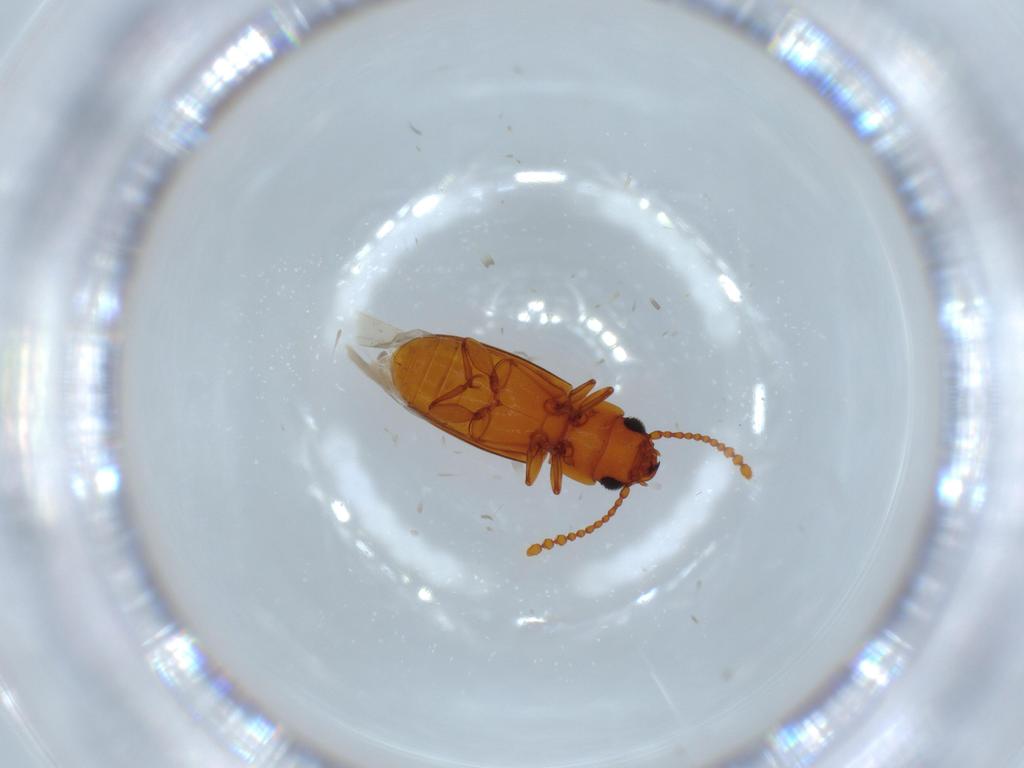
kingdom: Animalia
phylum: Arthropoda
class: Insecta
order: Coleoptera
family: Laemophloeidae
